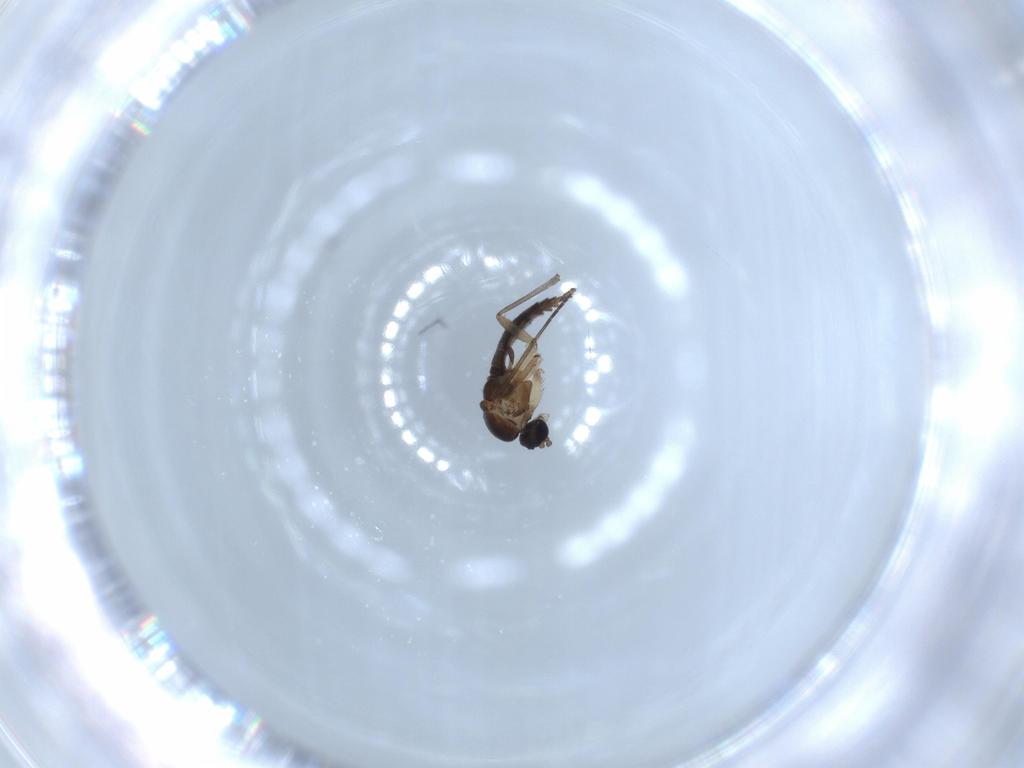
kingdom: Animalia
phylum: Arthropoda
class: Insecta
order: Diptera
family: Sciaridae
